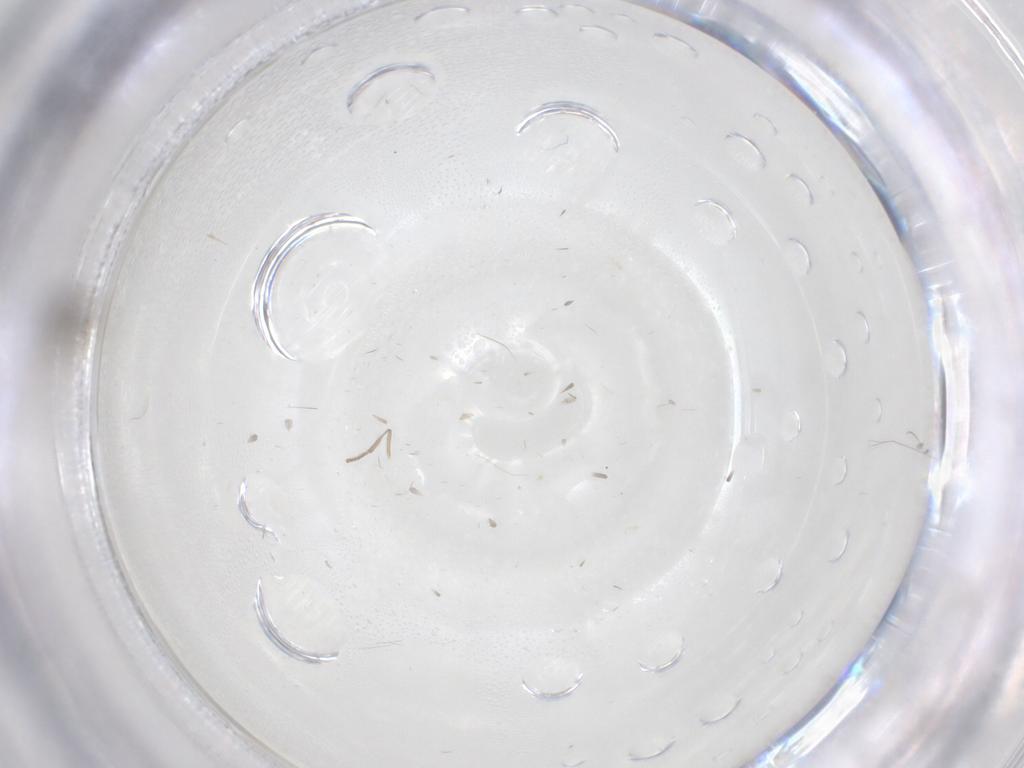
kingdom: Animalia
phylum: Arthropoda
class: Insecta
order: Diptera
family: Cecidomyiidae
